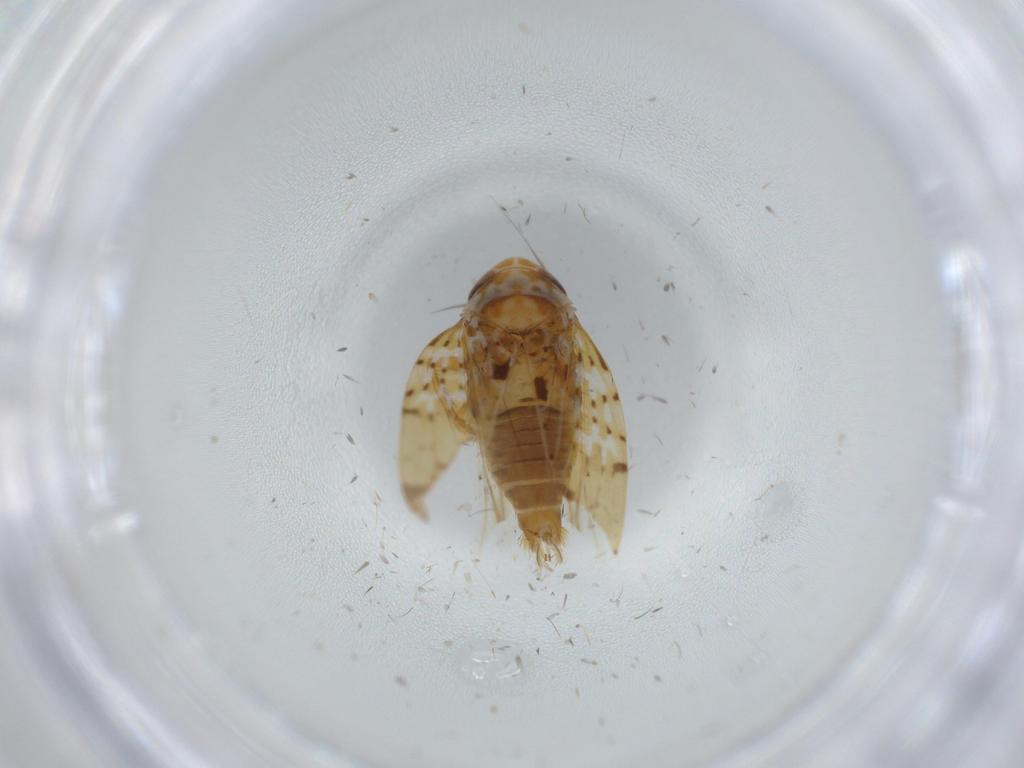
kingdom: Animalia
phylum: Arthropoda
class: Insecta
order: Hemiptera
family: Cicadellidae
